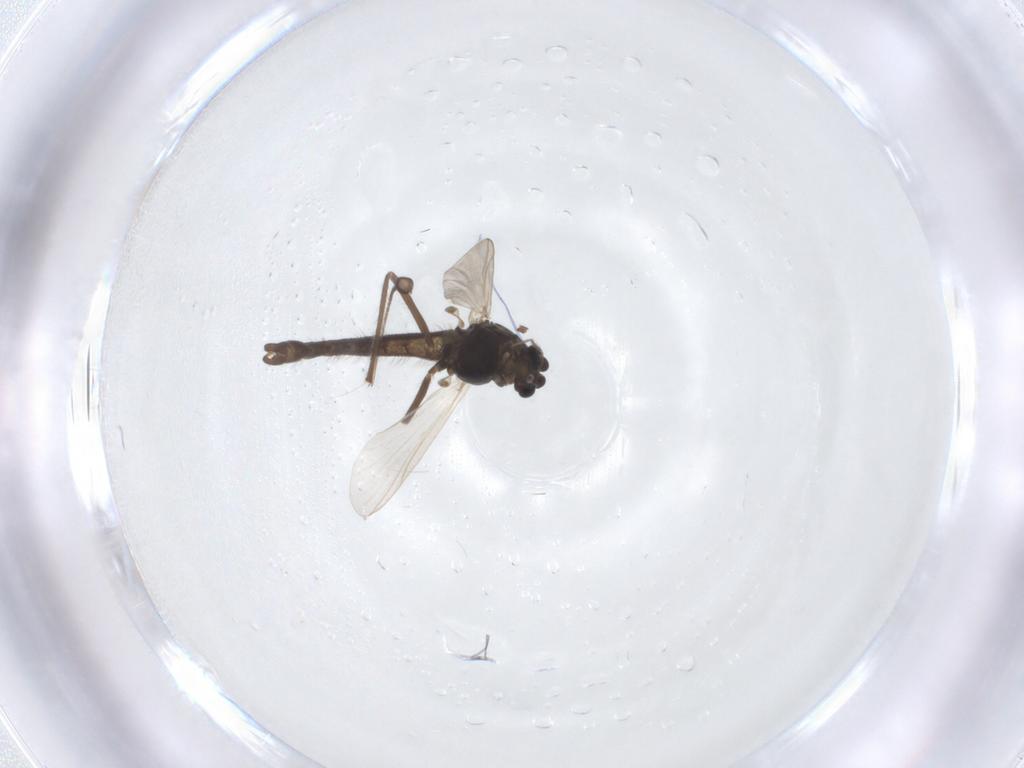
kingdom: Animalia
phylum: Arthropoda
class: Insecta
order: Diptera
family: Chironomidae
